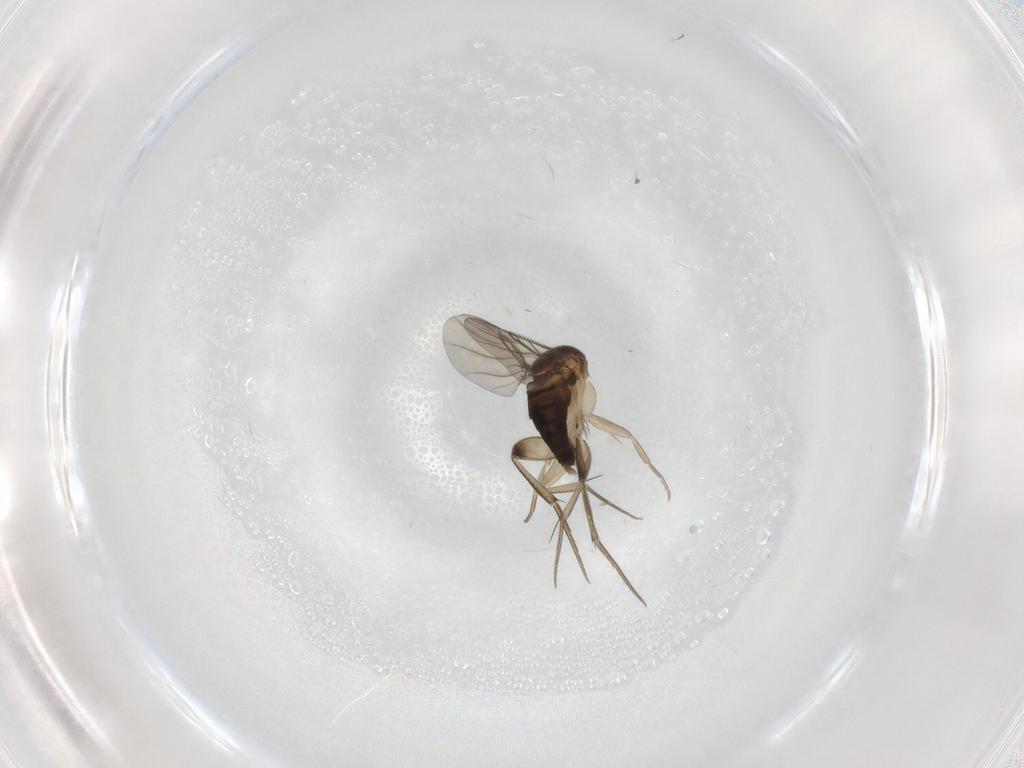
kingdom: Animalia
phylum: Arthropoda
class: Insecta
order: Diptera
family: Phoridae
